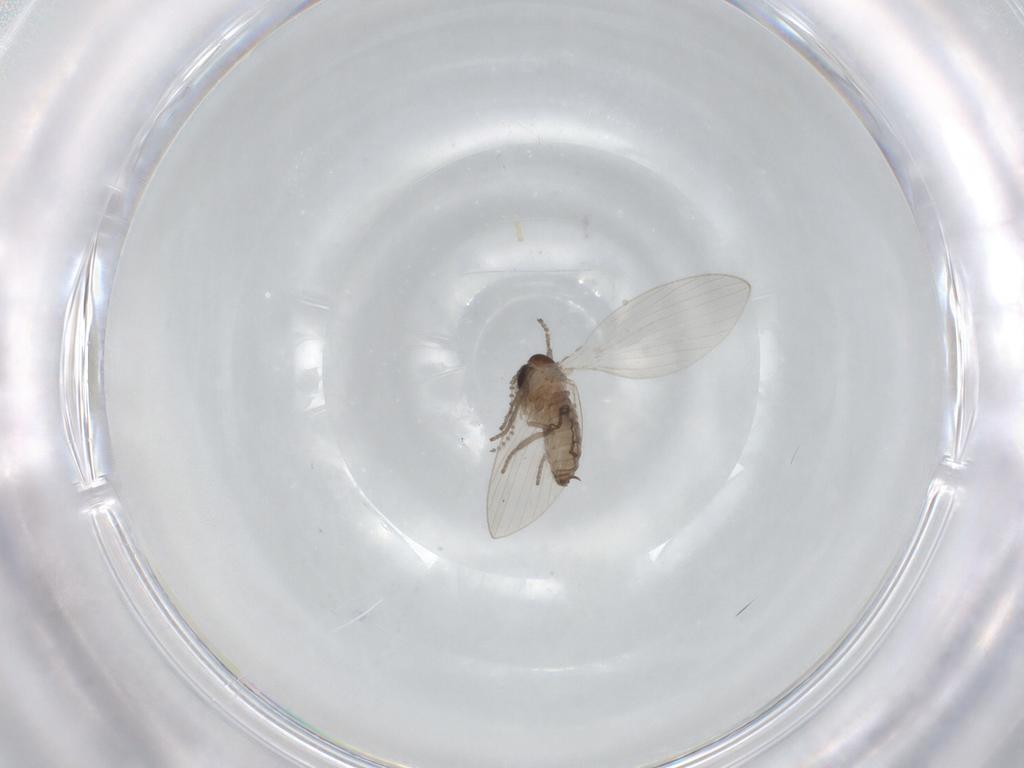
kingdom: Animalia
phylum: Arthropoda
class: Insecta
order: Diptera
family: Psychodidae
